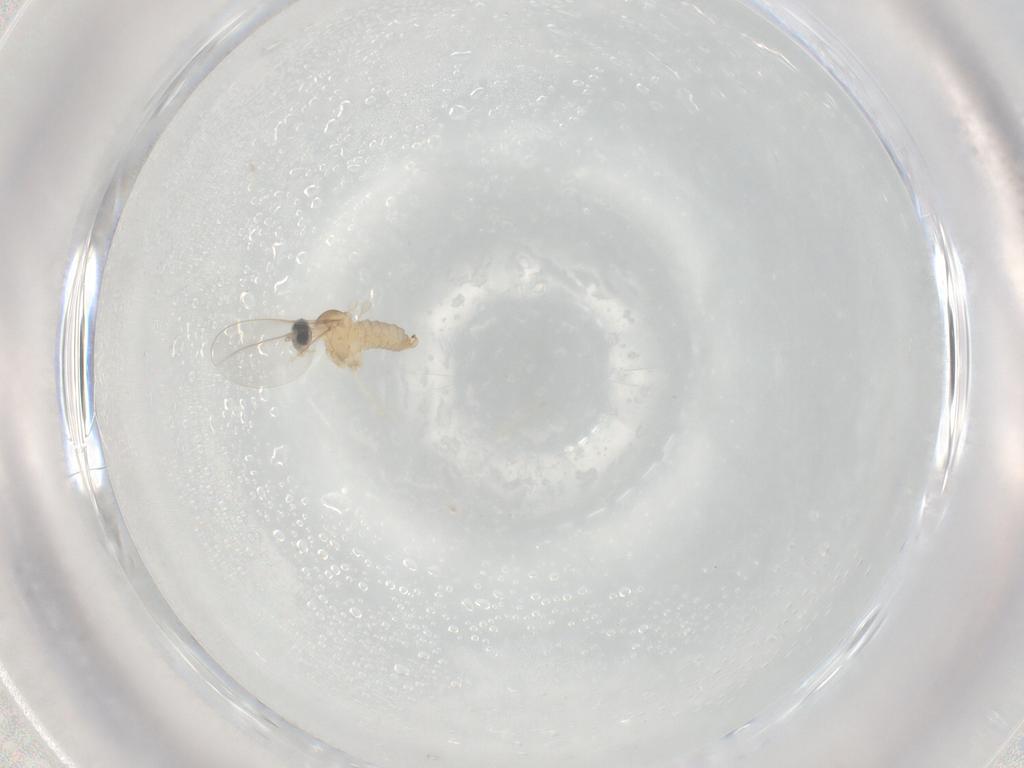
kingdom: Animalia
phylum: Arthropoda
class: Insecta
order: Diptera
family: Cecidomyiidae
